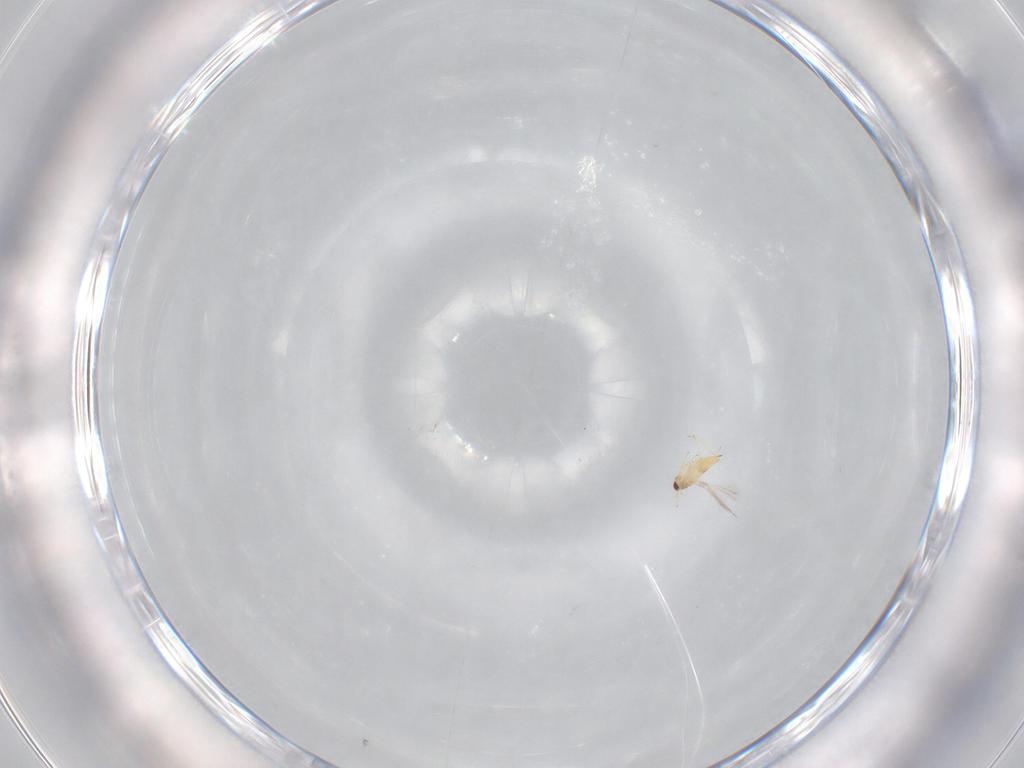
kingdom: Animalia
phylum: Arthropoda
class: Insecta
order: Hymenoptera
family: Mymaridae
